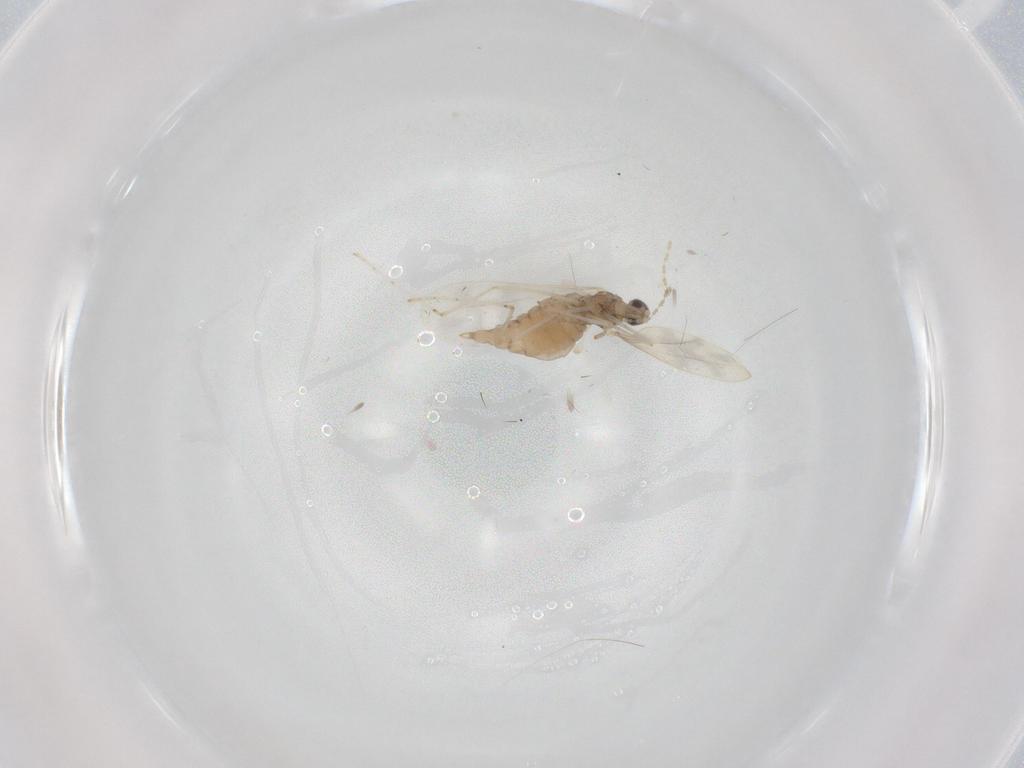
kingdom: Animalia
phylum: Arthropoda
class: Insecta
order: Diptera
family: Cecidomyiidae
